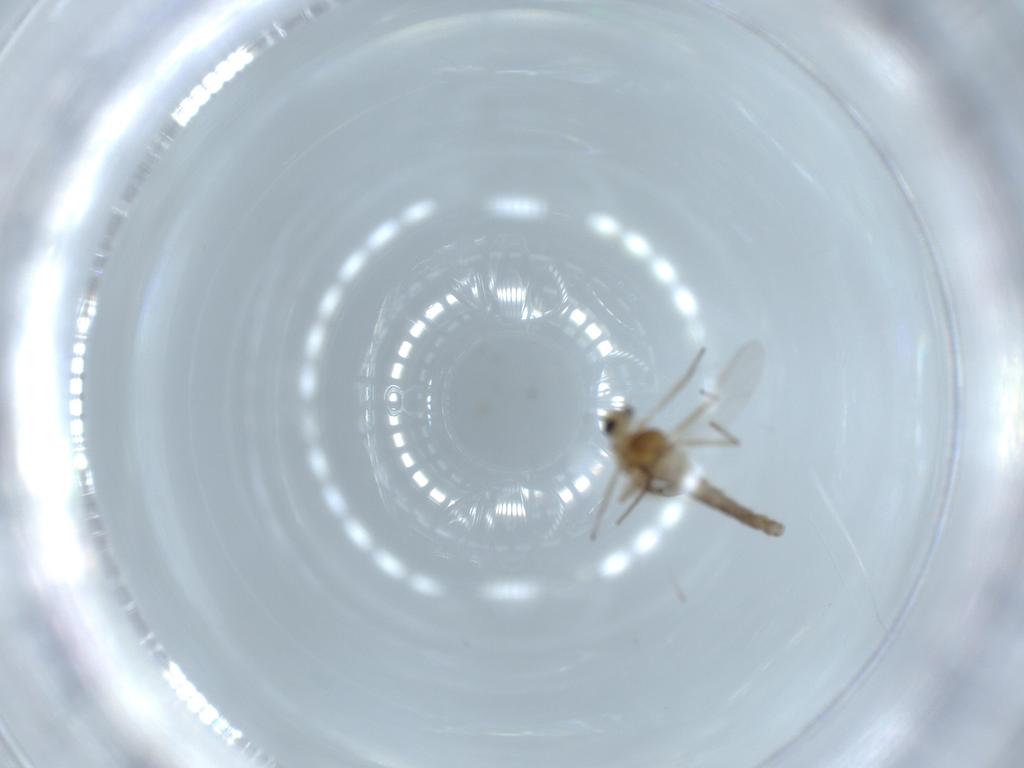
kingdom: Animalia
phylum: Arthropoda
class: Insecta
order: Diptera
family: Chironomidae
